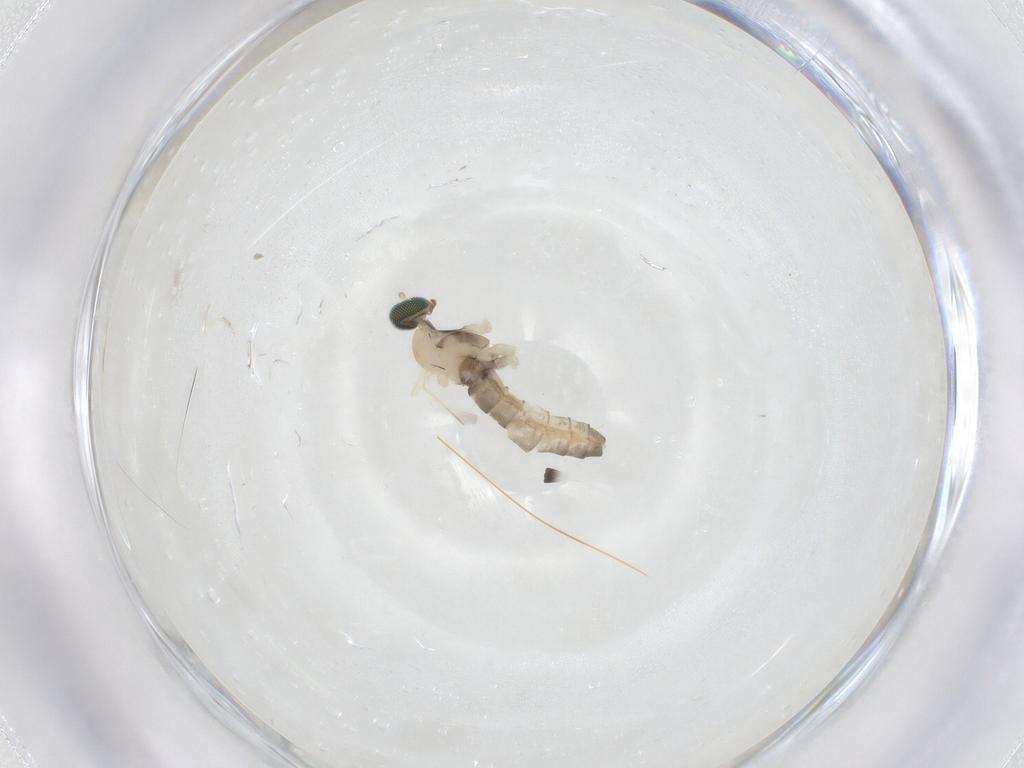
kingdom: Animalia
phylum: Arthropoda
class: Insecta
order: Diptera
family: Cecidomyiidae
